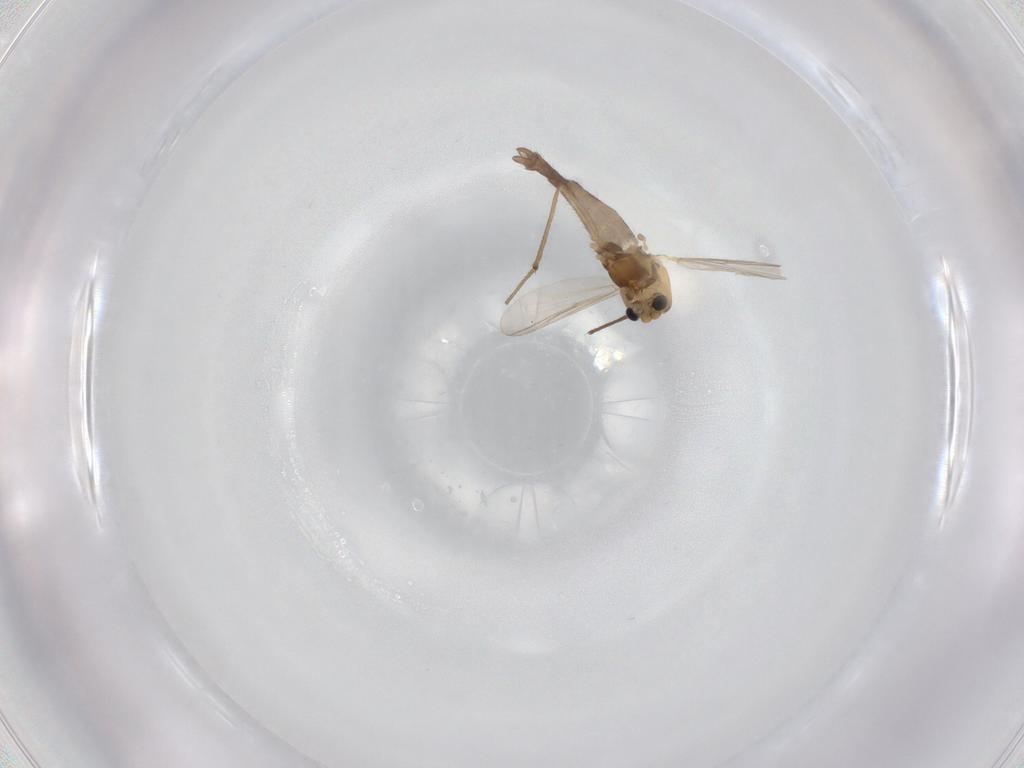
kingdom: Animalia
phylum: Arthropoda
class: Insecta
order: Diptera
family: Chironomidae
